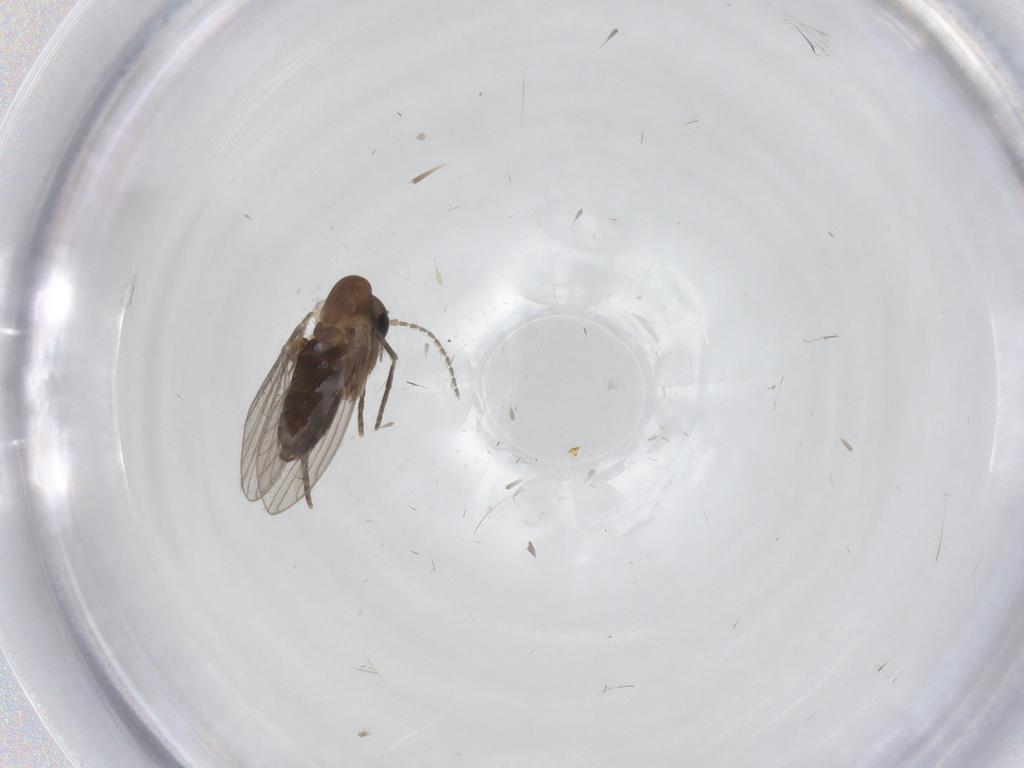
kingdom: Animalia
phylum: Arthropoda
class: Insecta
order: Diptera
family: Psychodidae
